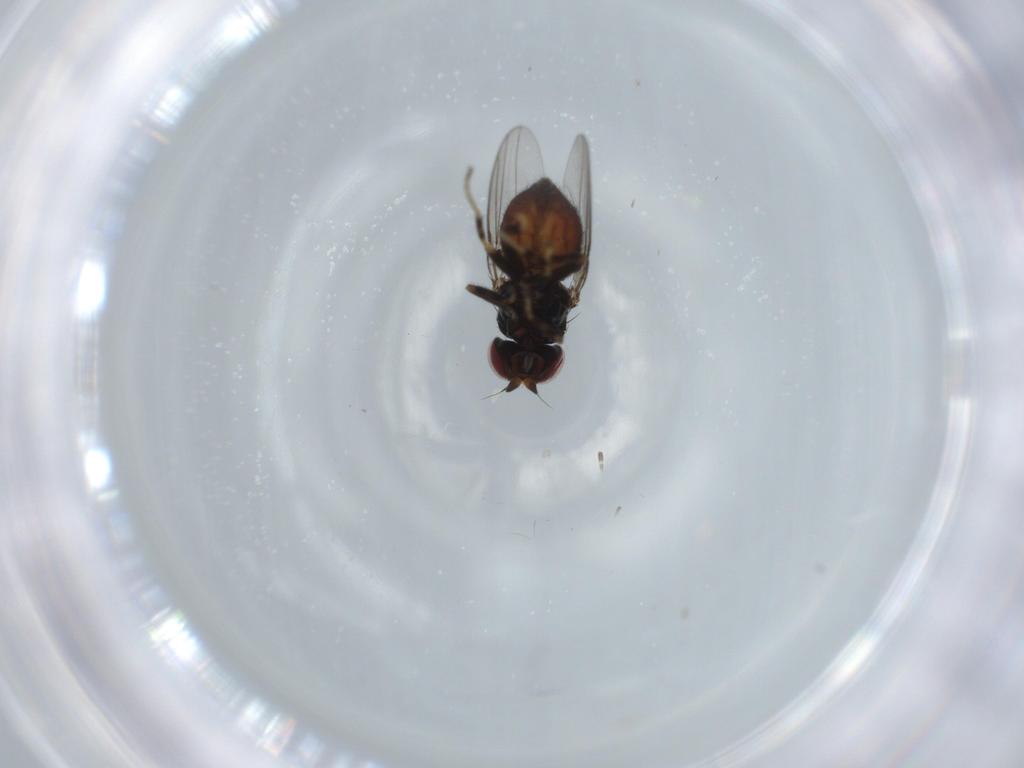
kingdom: Animalia
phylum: Arthropoda
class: Insecta
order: Diptera
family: Chloropidae
